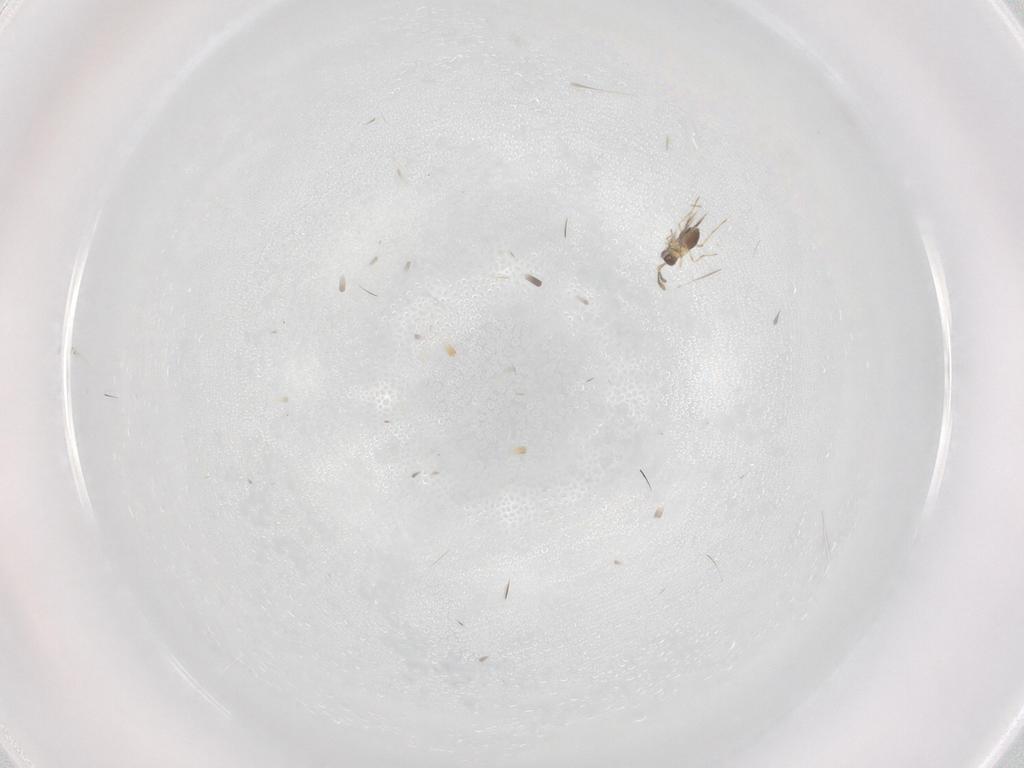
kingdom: Animalia
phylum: Arthropoda
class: Insecta
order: Hymenoptera
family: Mymaridae
